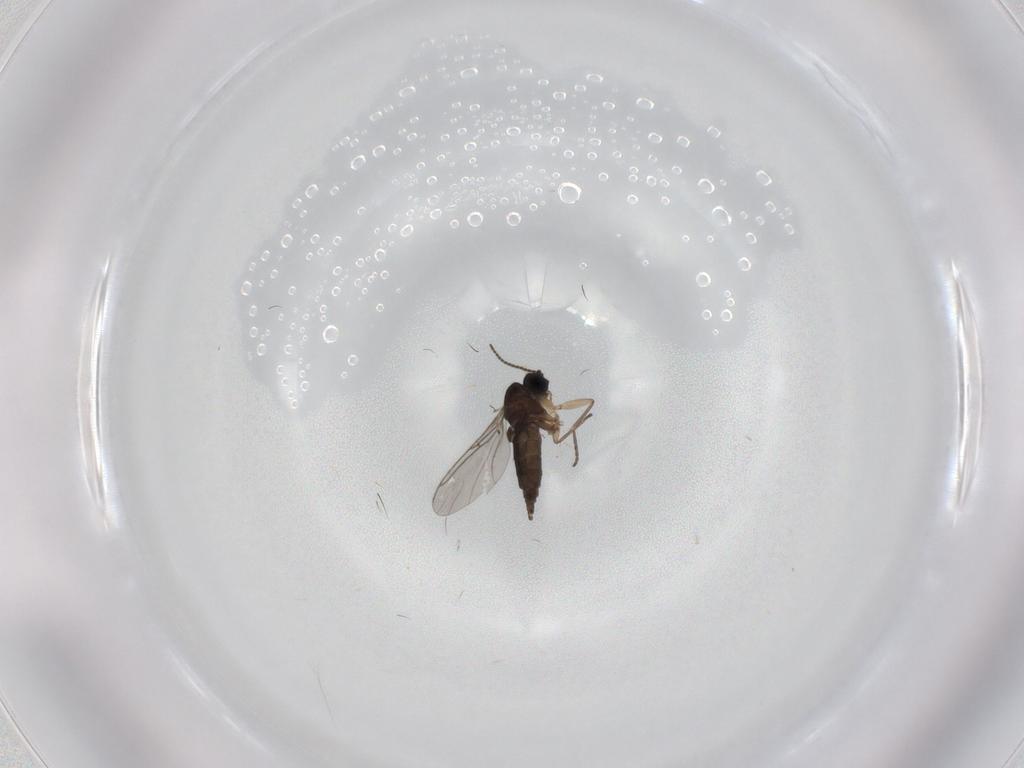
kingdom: Animalia
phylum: Arthropoda
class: Insecta
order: Diptera
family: Sciaridae
